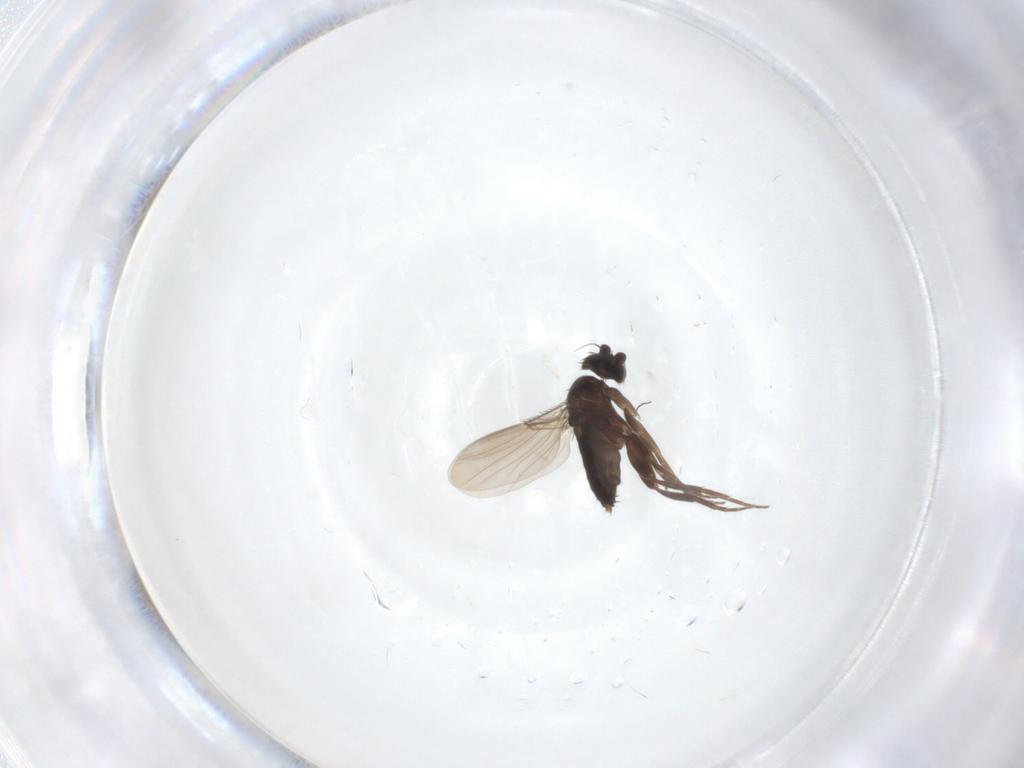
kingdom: Animalia
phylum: Arthropoda
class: Insecta
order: Diptera
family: Phoridae
